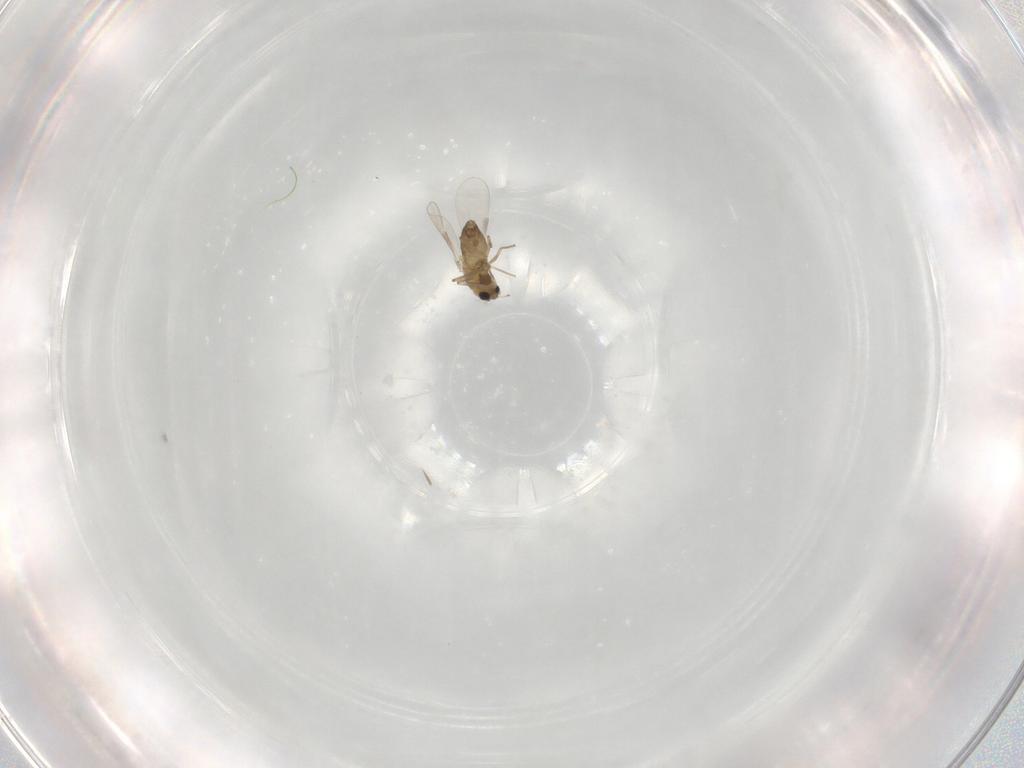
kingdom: Animalia
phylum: Arthropoda
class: Insecta
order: Diptera
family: Chironomidae
